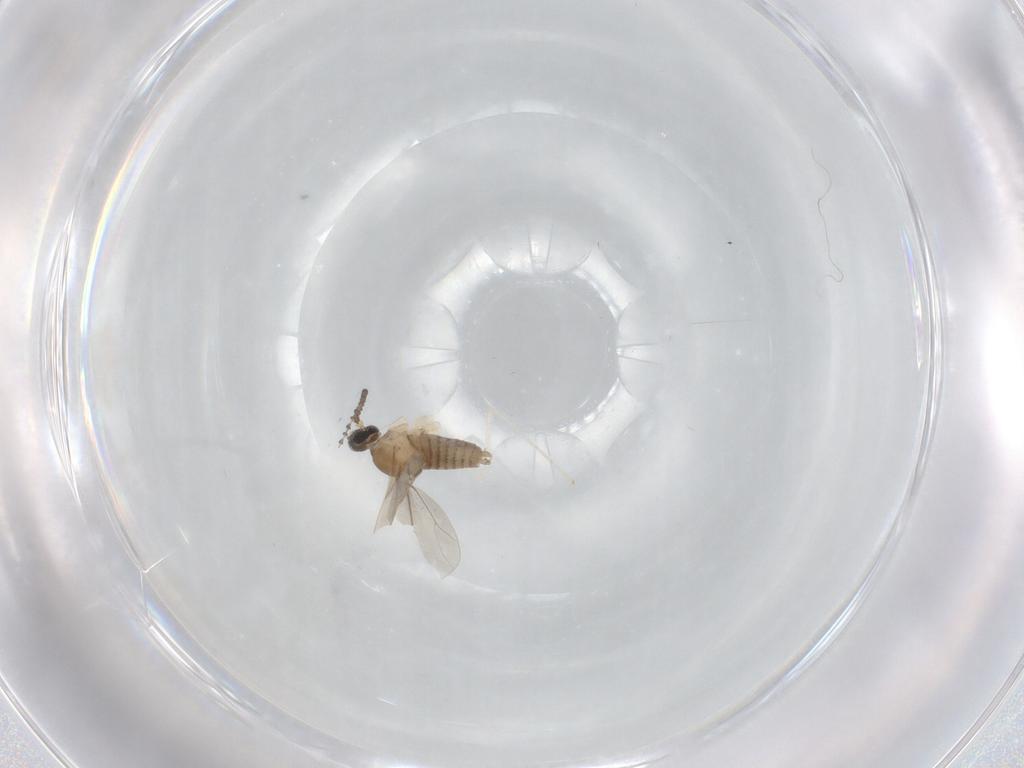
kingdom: Animalia
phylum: Arthropoda
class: Insecta
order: Diptera
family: Cecidomyiidae
